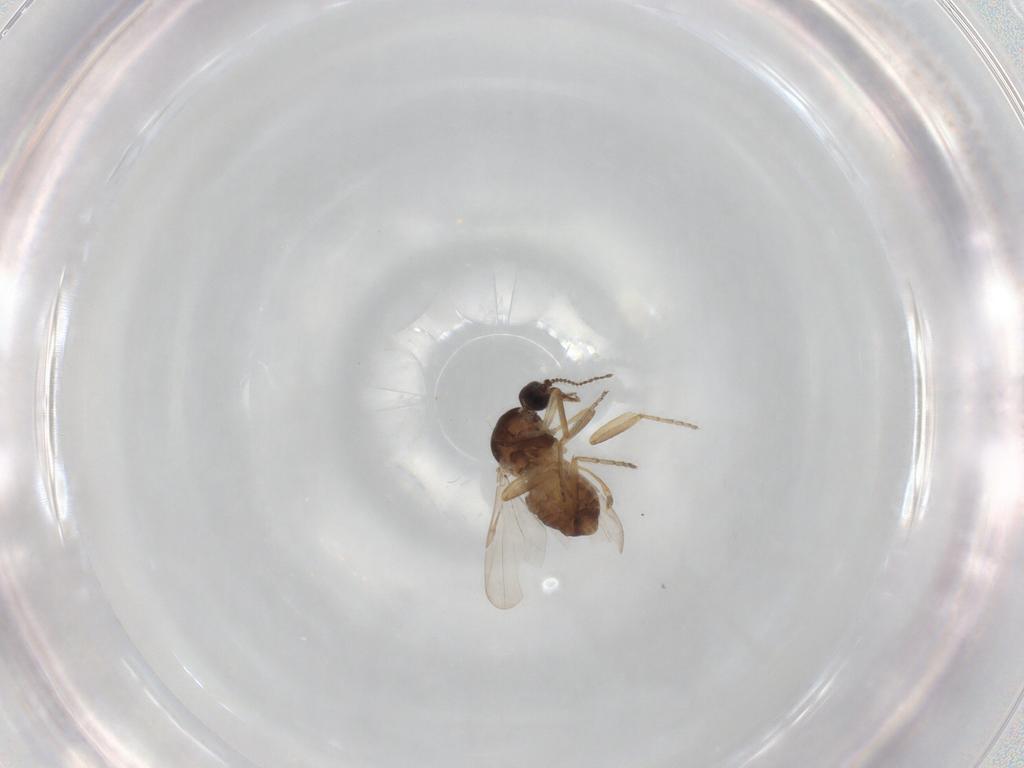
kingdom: Animalia
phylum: Arthropoda
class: Insecta
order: Diptera
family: Ceratopogonidae
